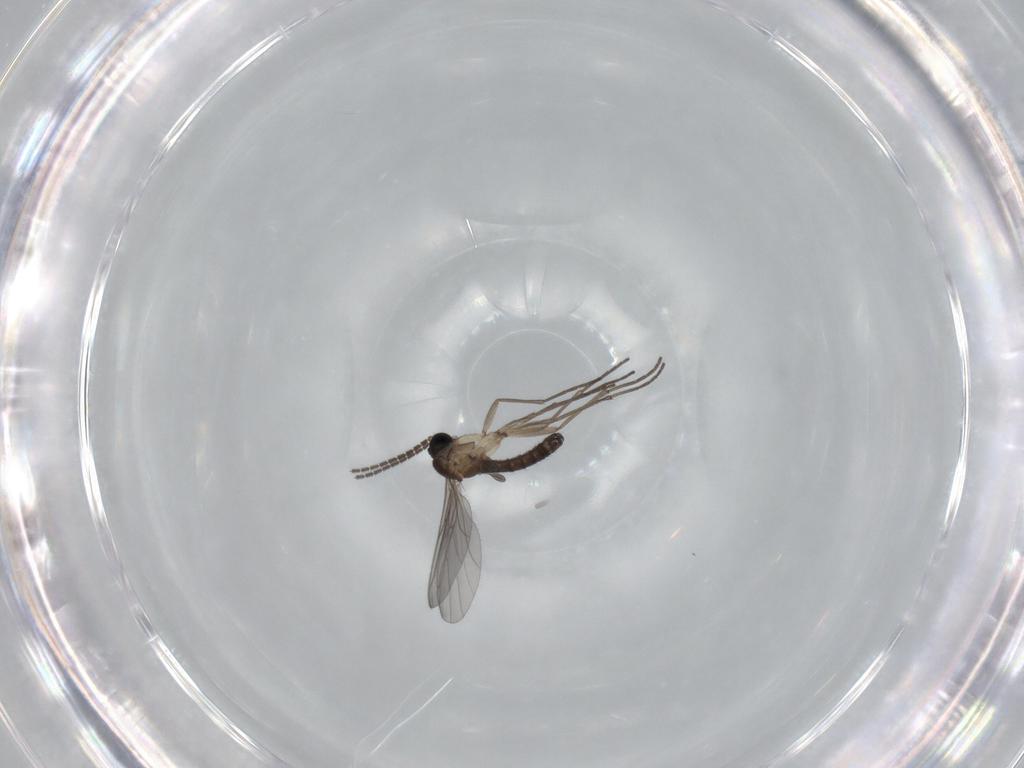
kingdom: Animalia
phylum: Arthropoda
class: Insecta
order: Diptera
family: Sciaridae
